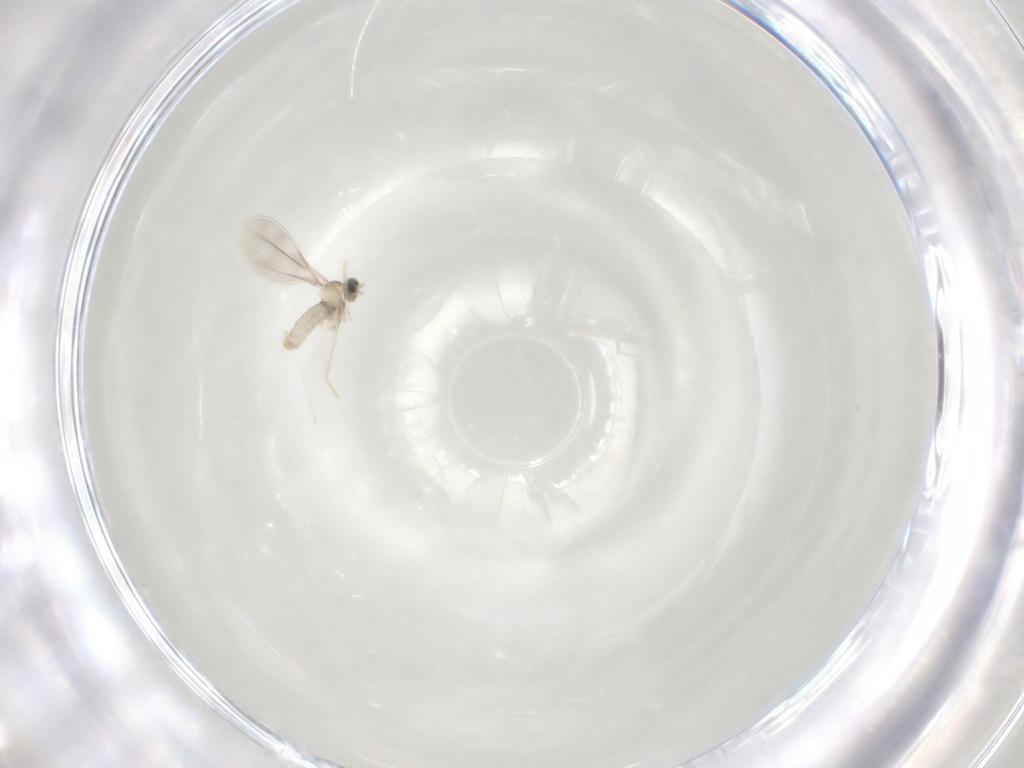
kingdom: Animalia
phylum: Arthropoda
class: Insecta
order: Diptera
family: Cecidomyiidae
